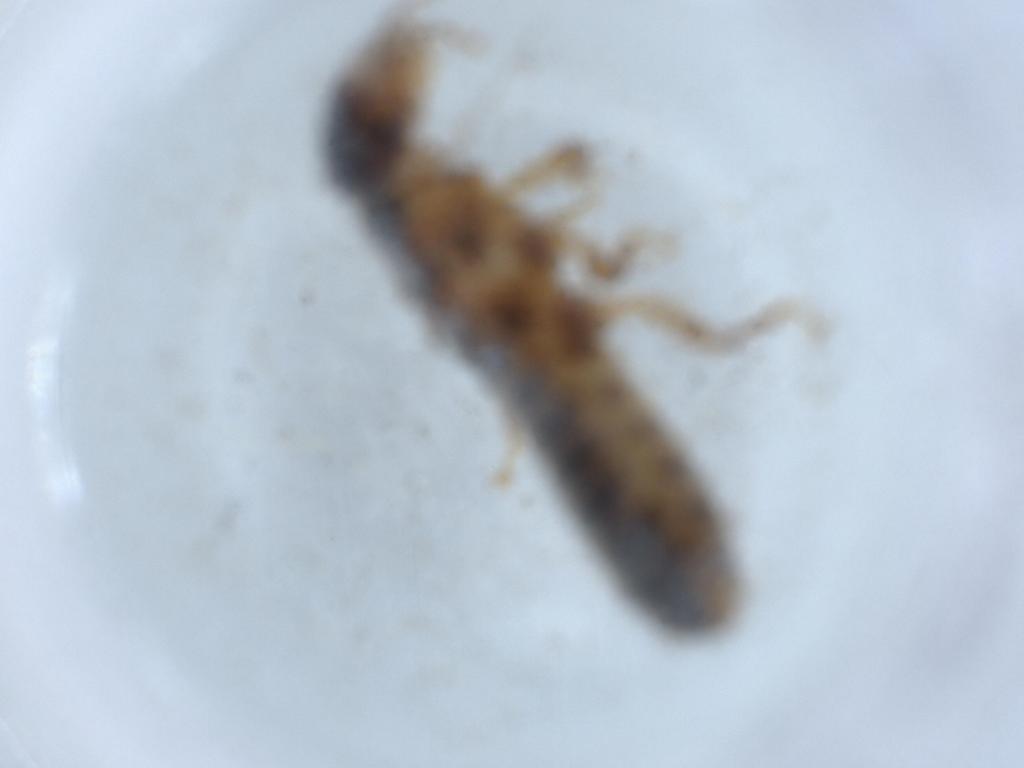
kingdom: Animalia
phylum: Arthropoda
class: Insecta
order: Blattodea
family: Termitidae
